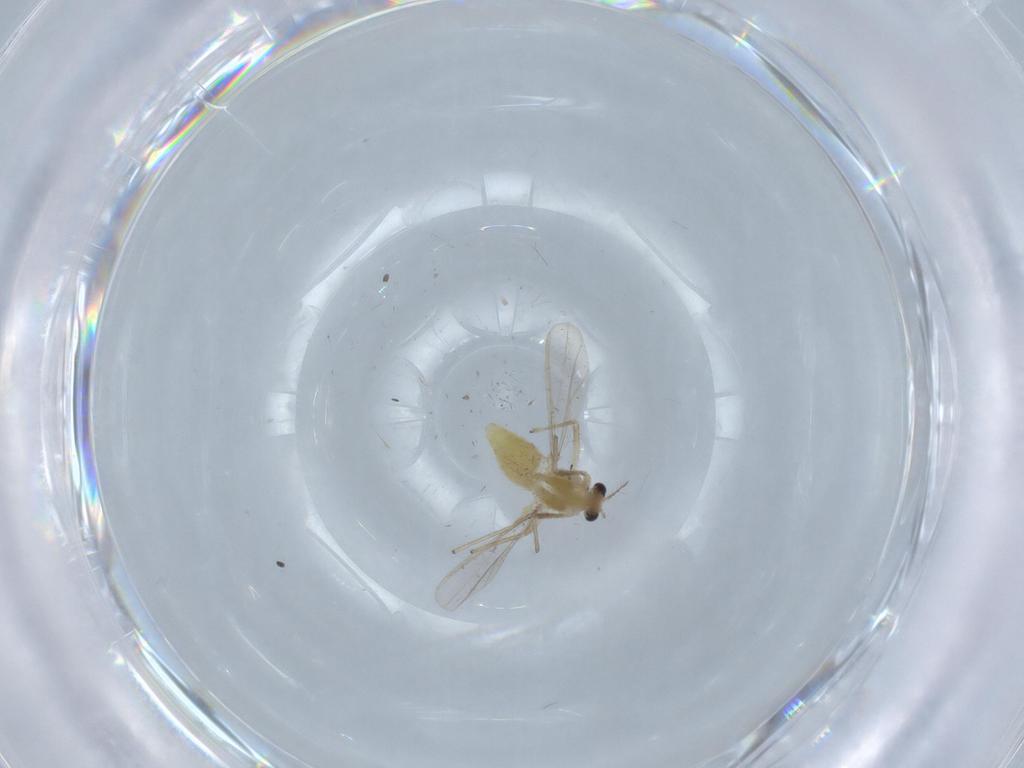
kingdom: Animalia
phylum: Arthropoda
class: Insecta
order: Diptera
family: Chironomidae
